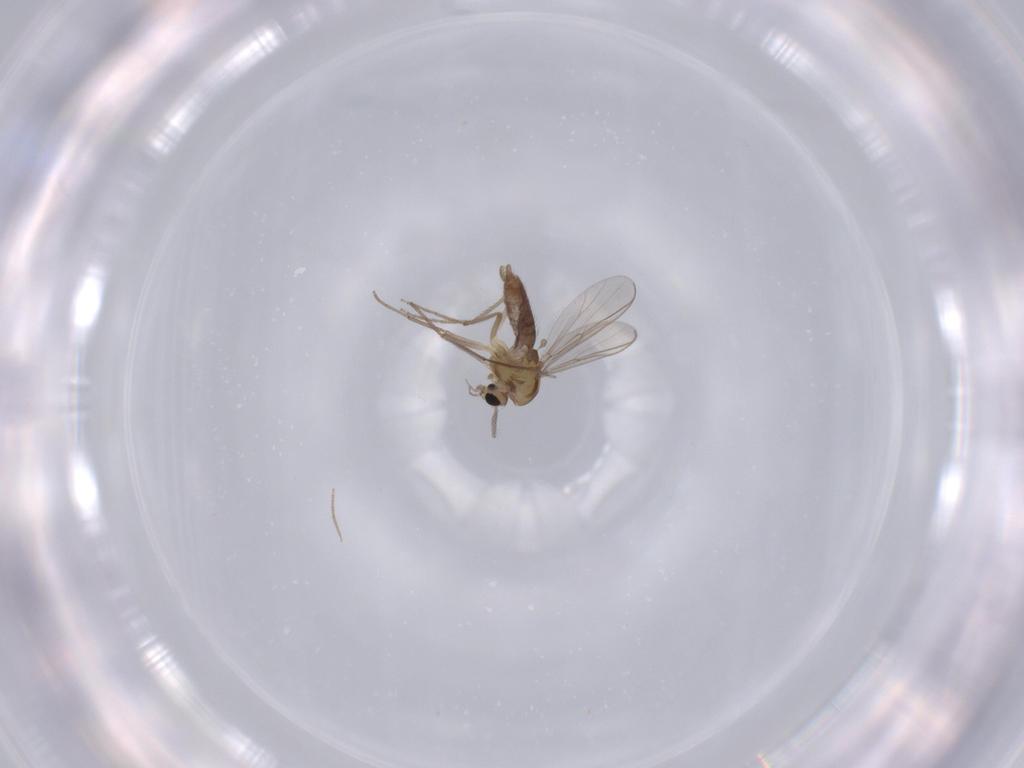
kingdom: Animalia
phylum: Arthropoda
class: Insecta
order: Diptera
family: Chironomidae
